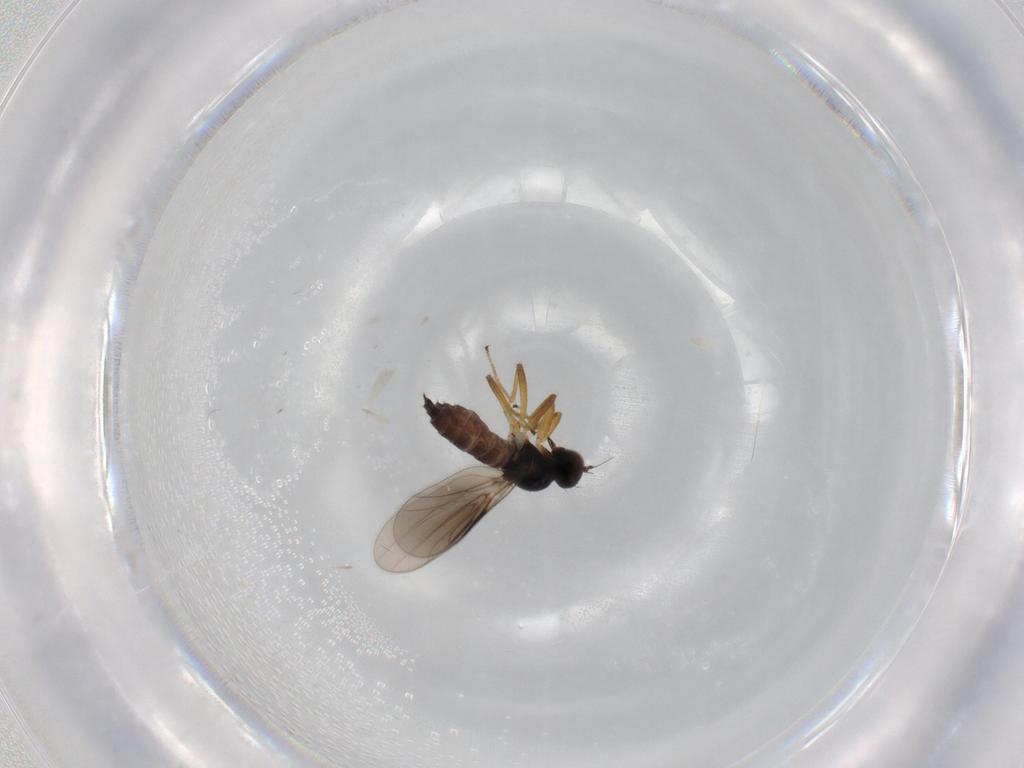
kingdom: Animalia
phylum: Arthropoda
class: Insecta
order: Diptera
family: Hybotidae
